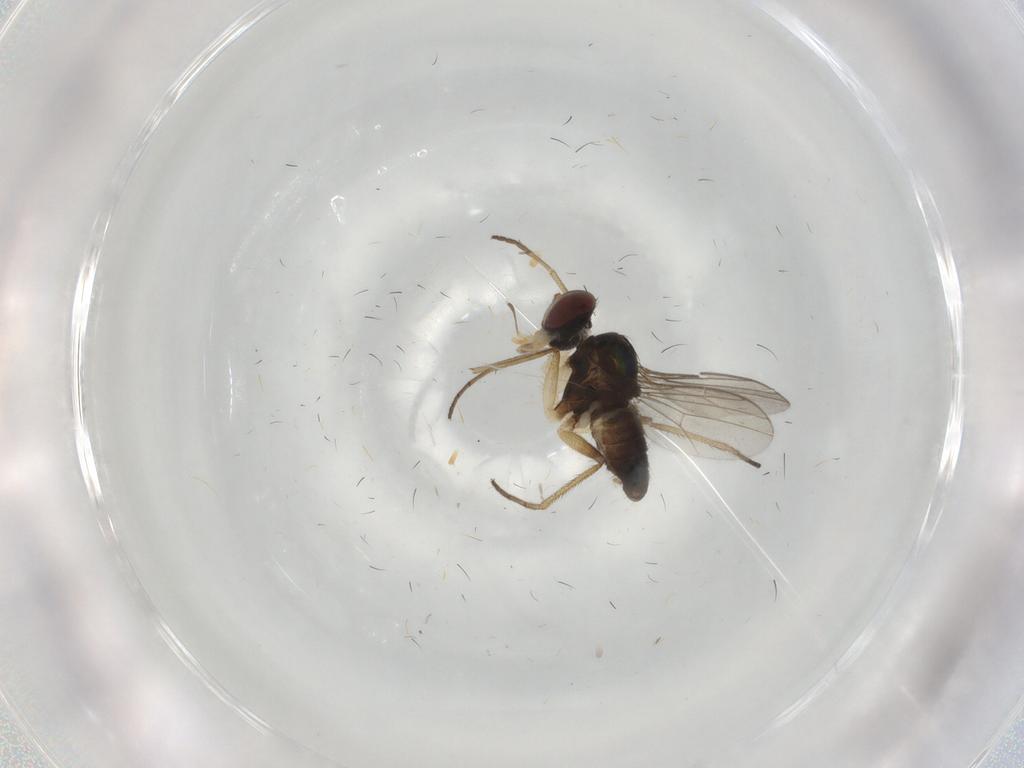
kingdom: Animalia
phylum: Arthropoda
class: Insecta
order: Diptera
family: Dolichopodidae
